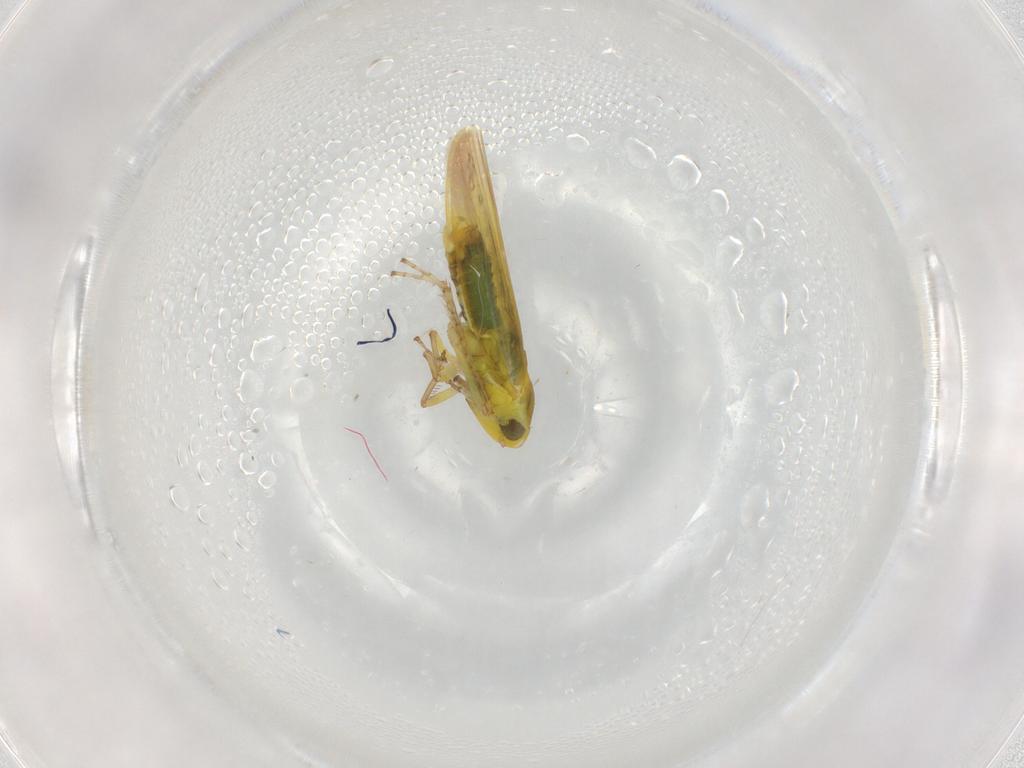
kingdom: Animalia
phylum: Arthropoda
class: Insecta
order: Hemiptera
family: Cicadellidae
